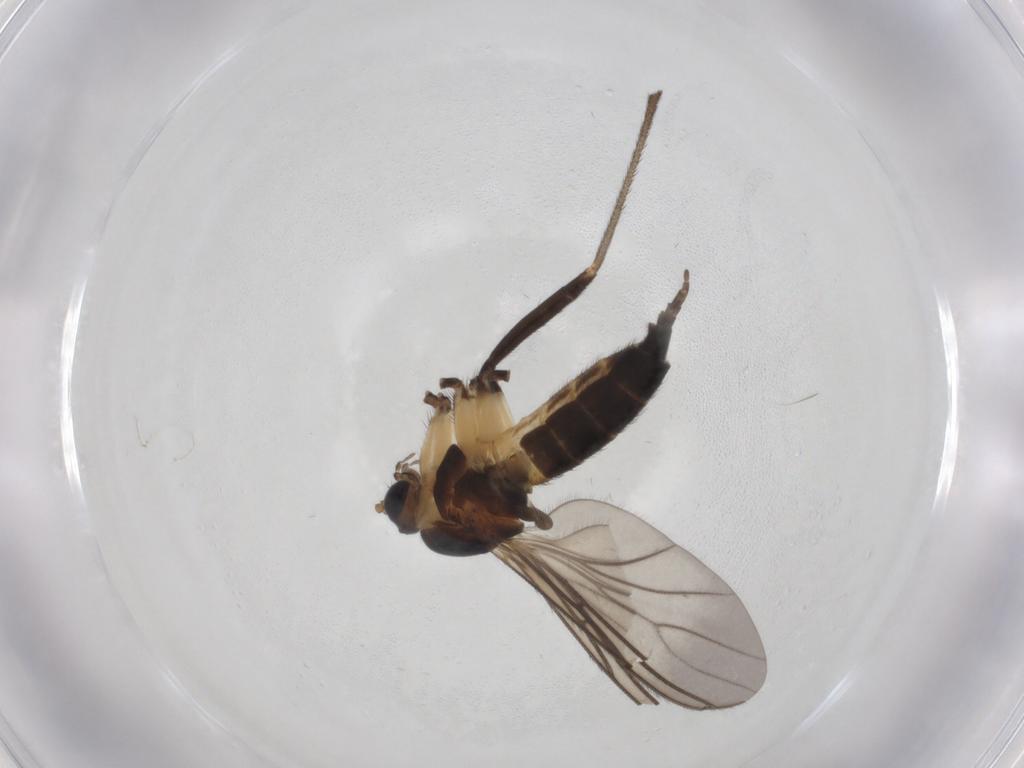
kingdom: Animalia
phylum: Arthropoda
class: Insecta
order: Diptera
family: Sciaridae
